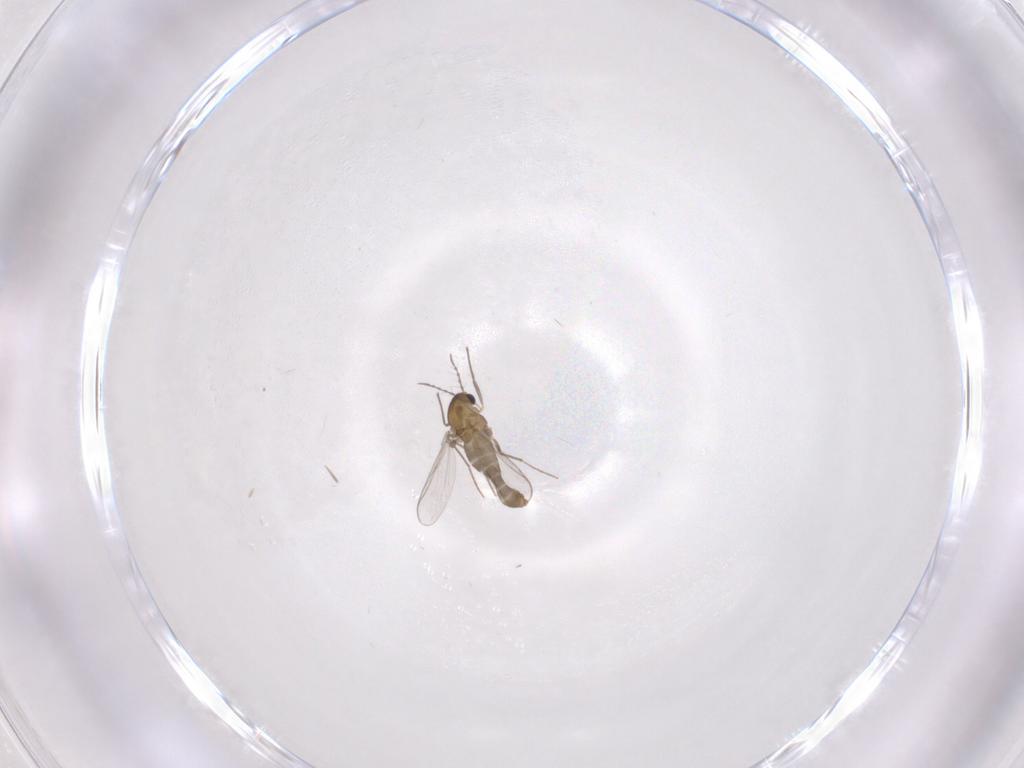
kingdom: Animalia
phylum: Arthropoda
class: Insecta
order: Diptera
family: Chironomidae
